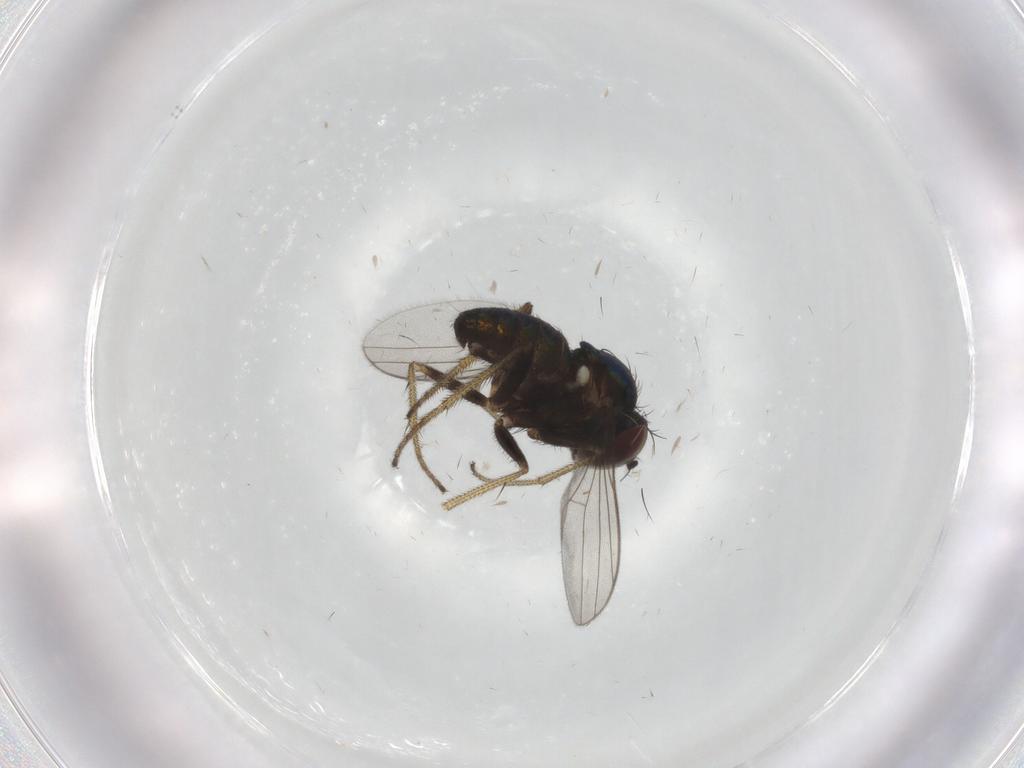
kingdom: Animalia
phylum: Arthropoda
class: Insecta
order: Diptera
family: Dolichopodidae
